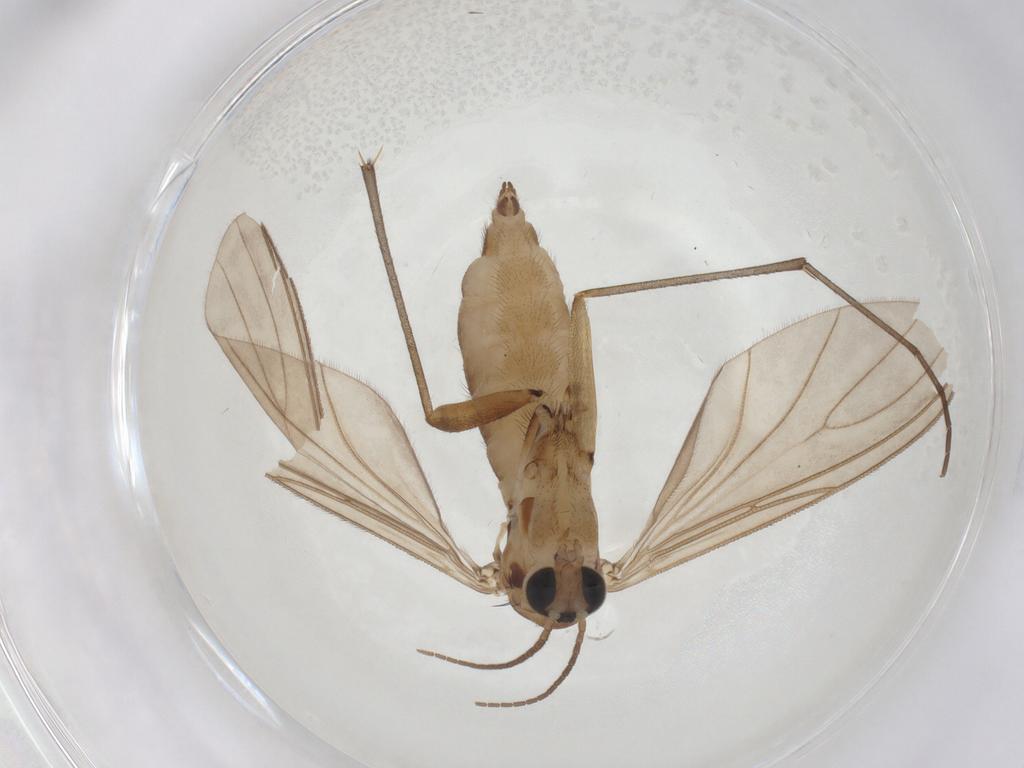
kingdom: Animalia
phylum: Arthropoda
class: Insecta
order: Diptera
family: Sciaridae
